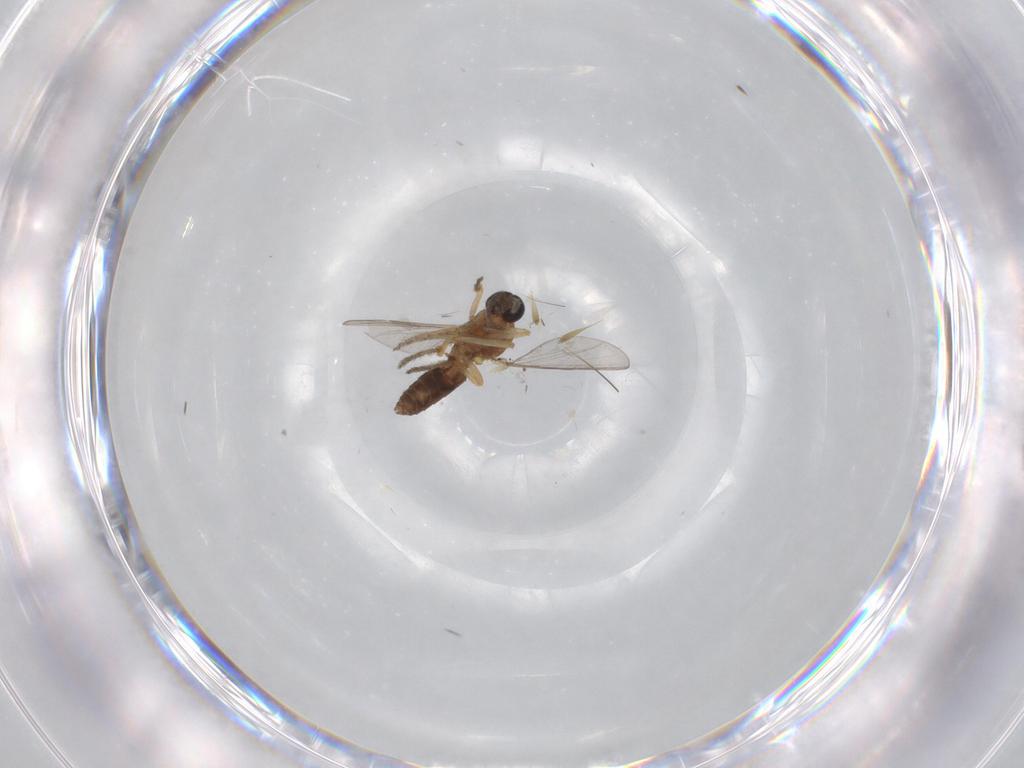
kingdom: Animalia
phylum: Arthropoda
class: Insecta
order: Diptera
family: Ceratopogonidae
